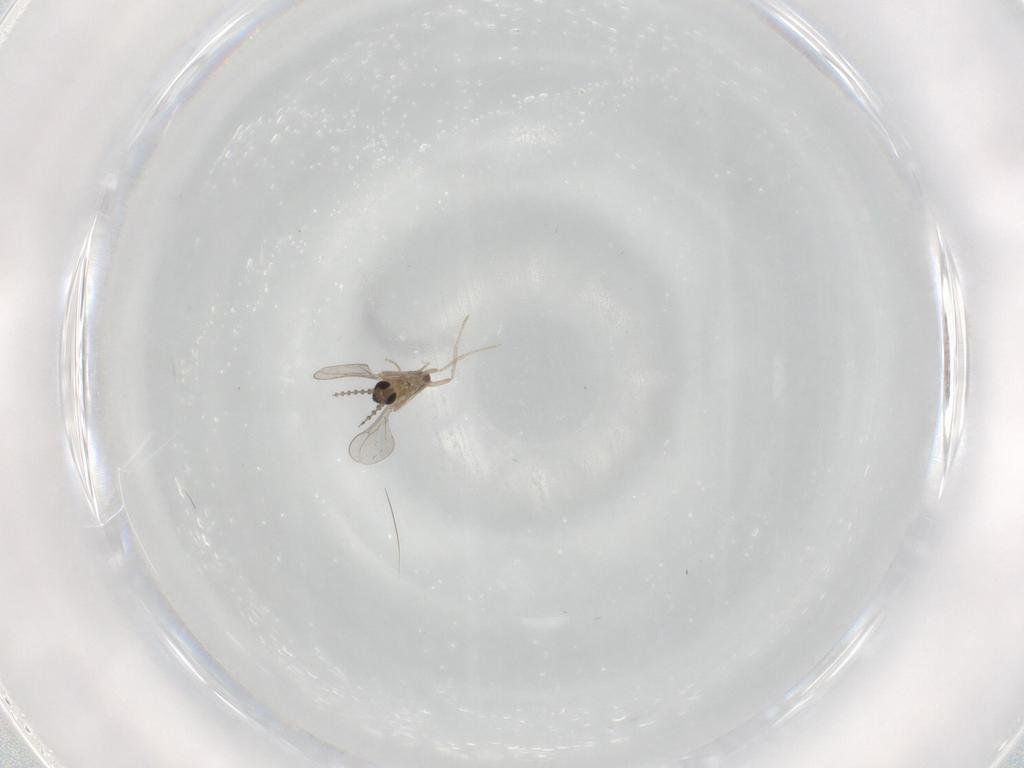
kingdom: Animalia
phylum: Arthropoda
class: Insecta
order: Diptera
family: Cecidomyiidae
